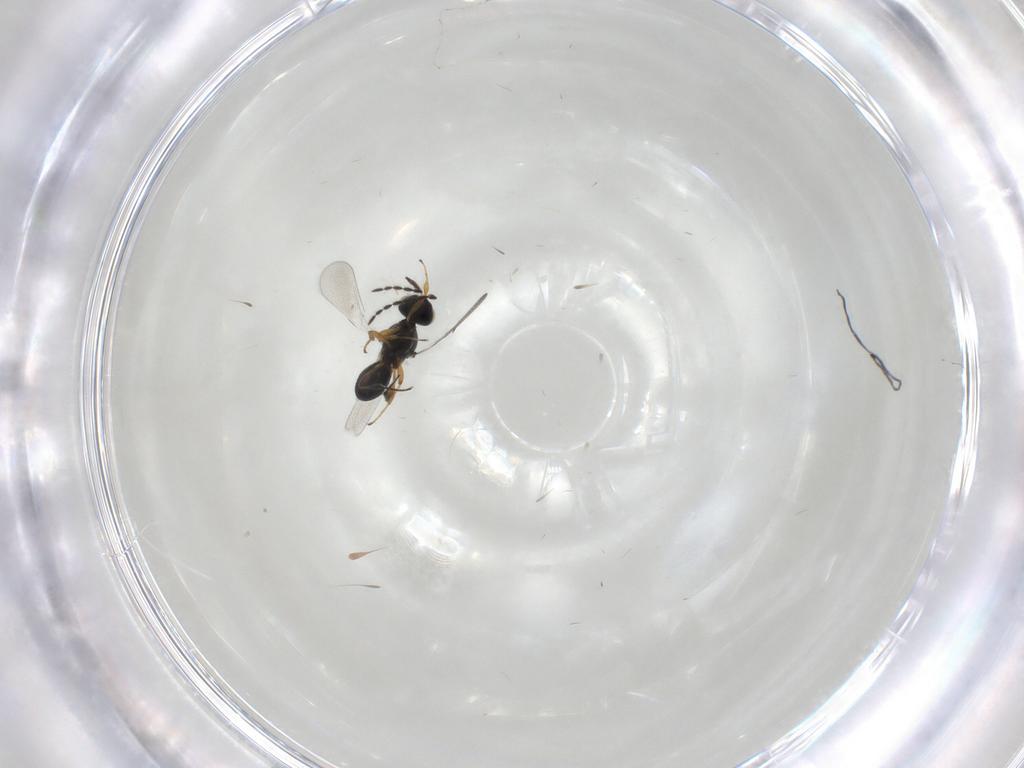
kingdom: Animalia
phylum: Arthropoda
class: Insecta
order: Hymenoptera
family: Platygastridae
